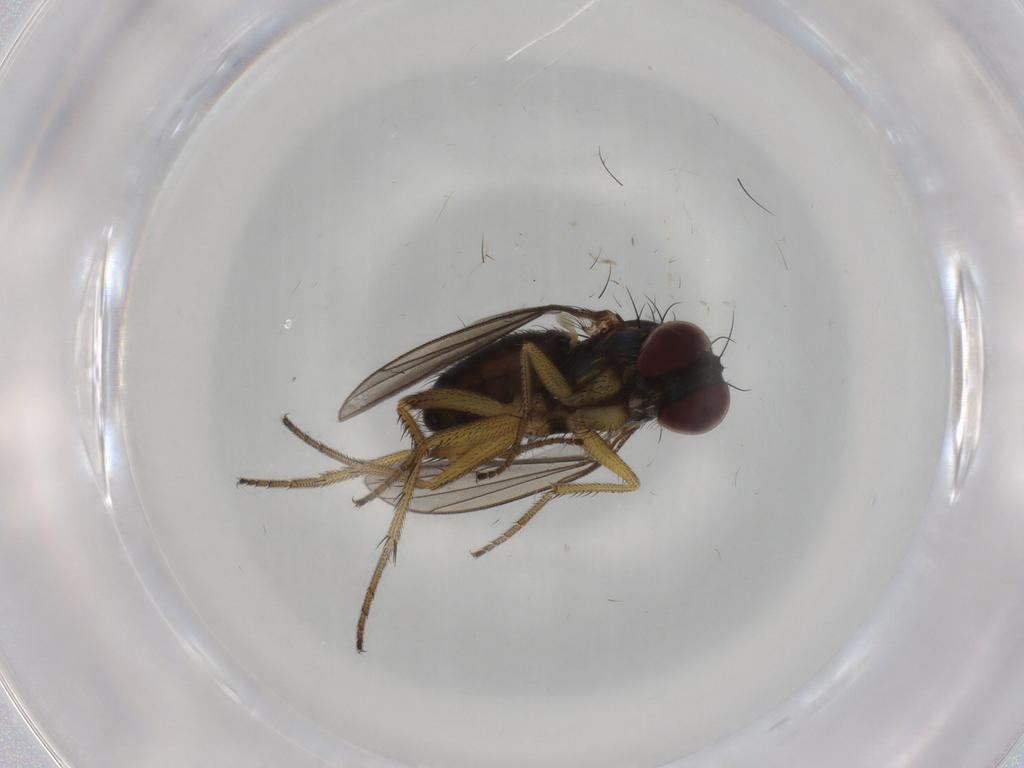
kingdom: Animalia
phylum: Arthropoda
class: Insecta
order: Diptera
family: Dolichopodidae
